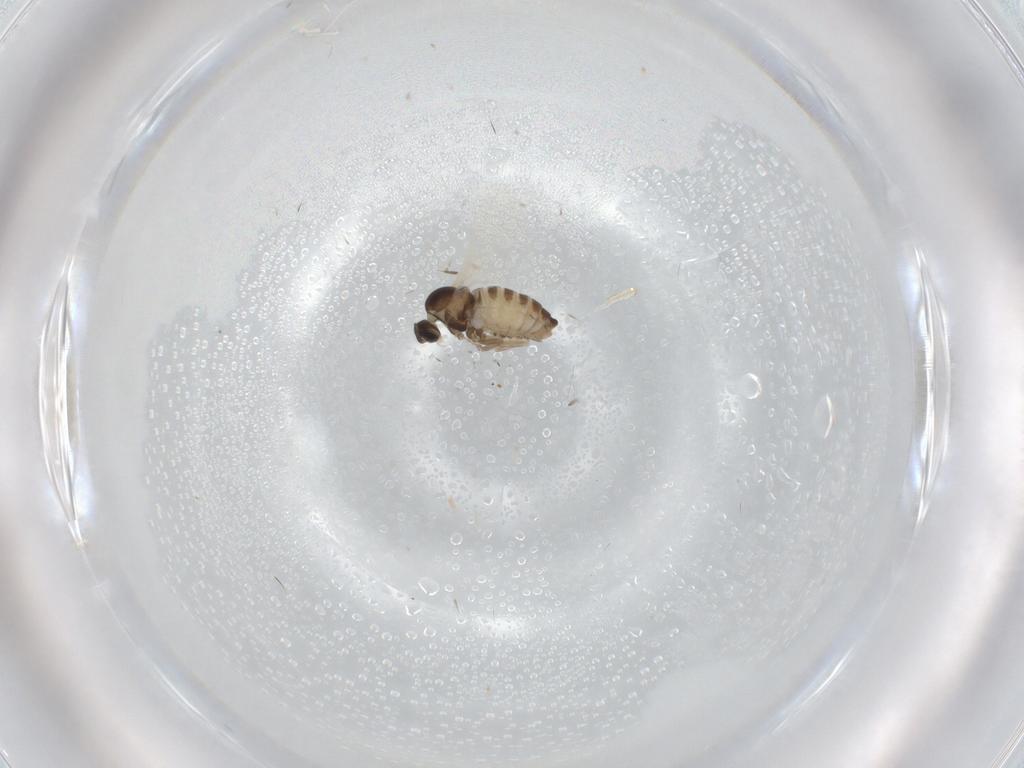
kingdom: Animalia
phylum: Arthropoda
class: Insecta
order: Diptera
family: Cecidomyiidae
